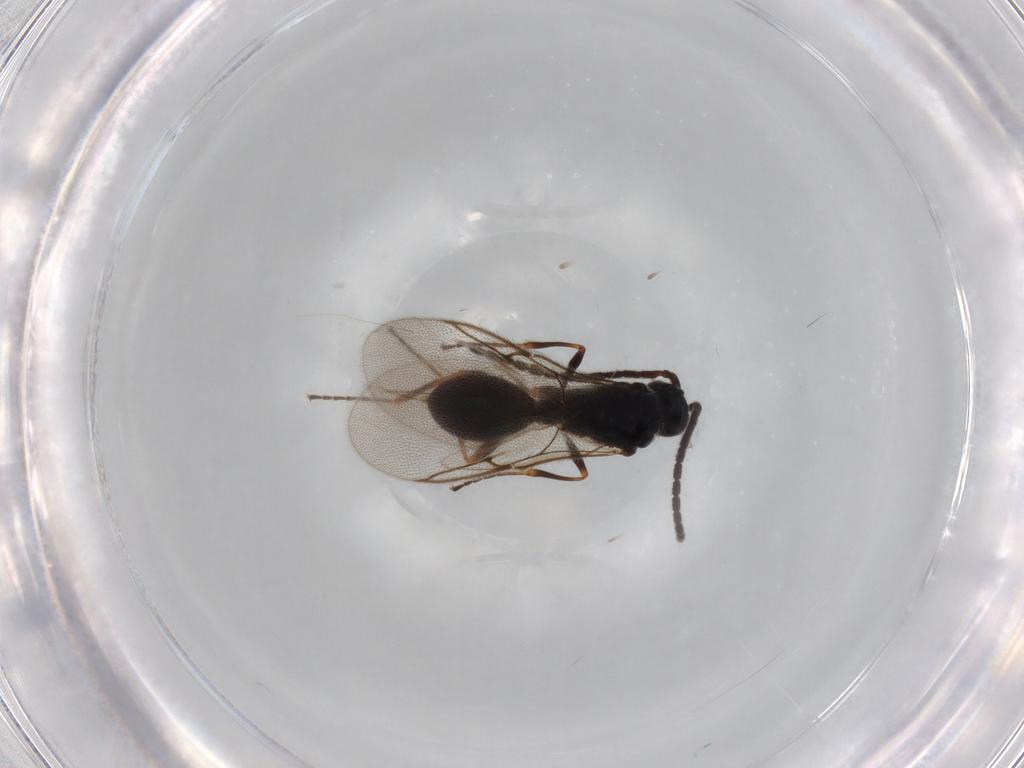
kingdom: Animalia
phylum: Arthropoda
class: Insecta
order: Hymenoptera
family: Diapriidae
